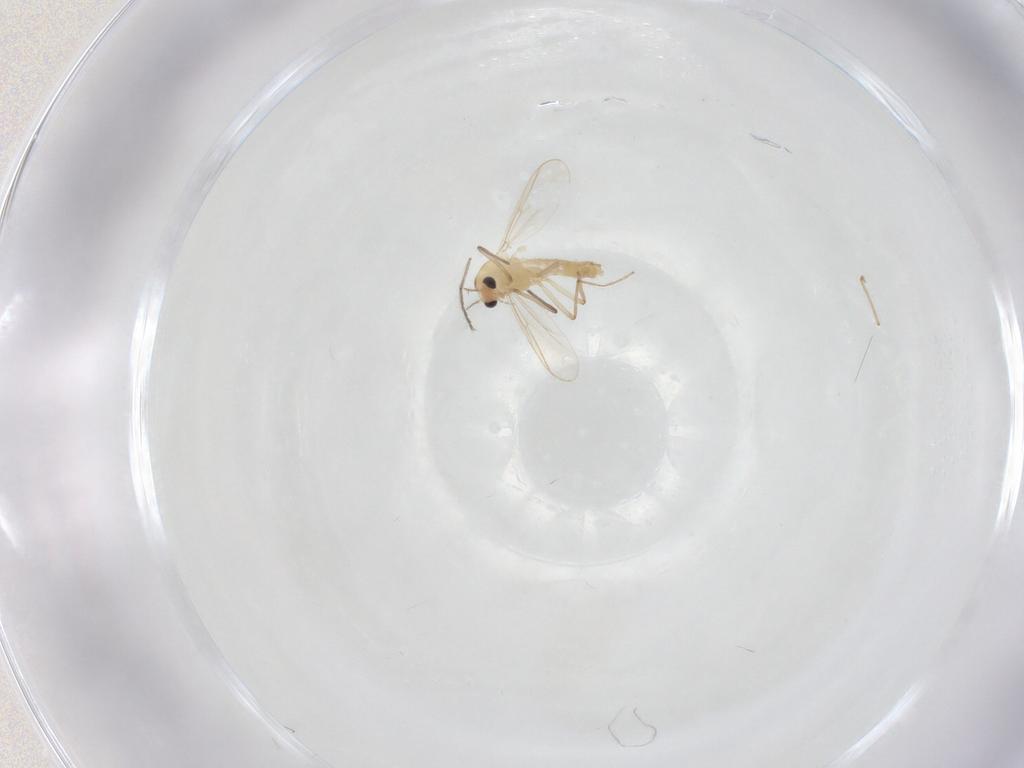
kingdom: Animalia
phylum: Arthropoda
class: Insecta
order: Diptera
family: Chironomidae
